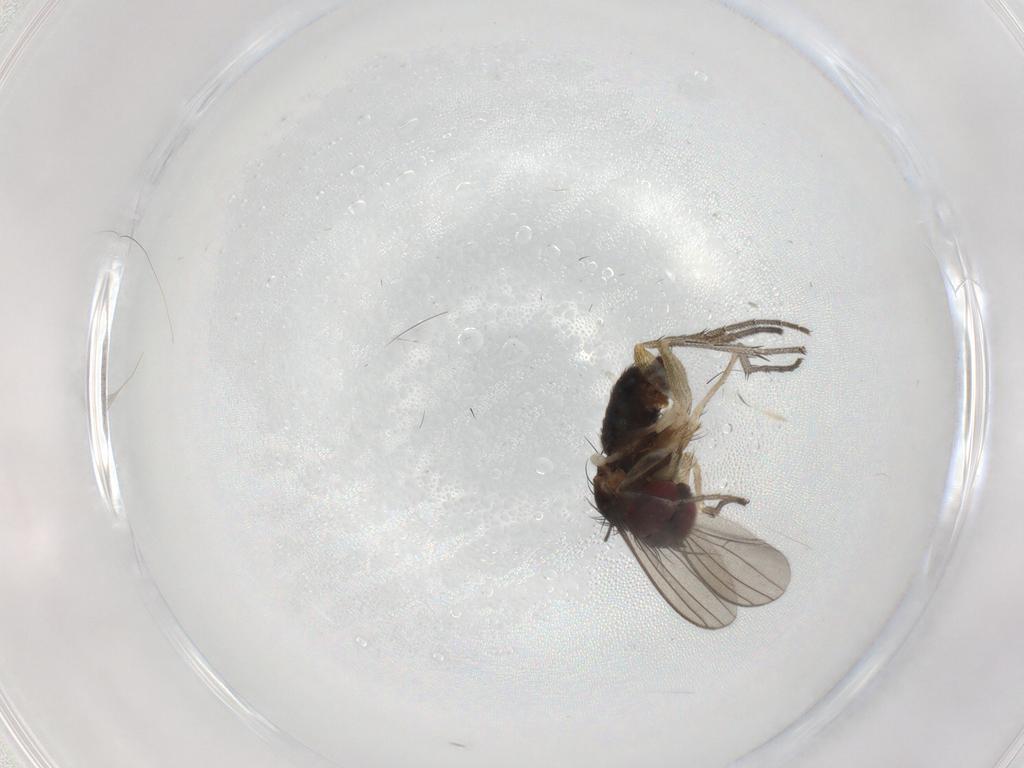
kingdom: Animalia
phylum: Arthropoda
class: Insecta
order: Diptera
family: Dolichopodidae
